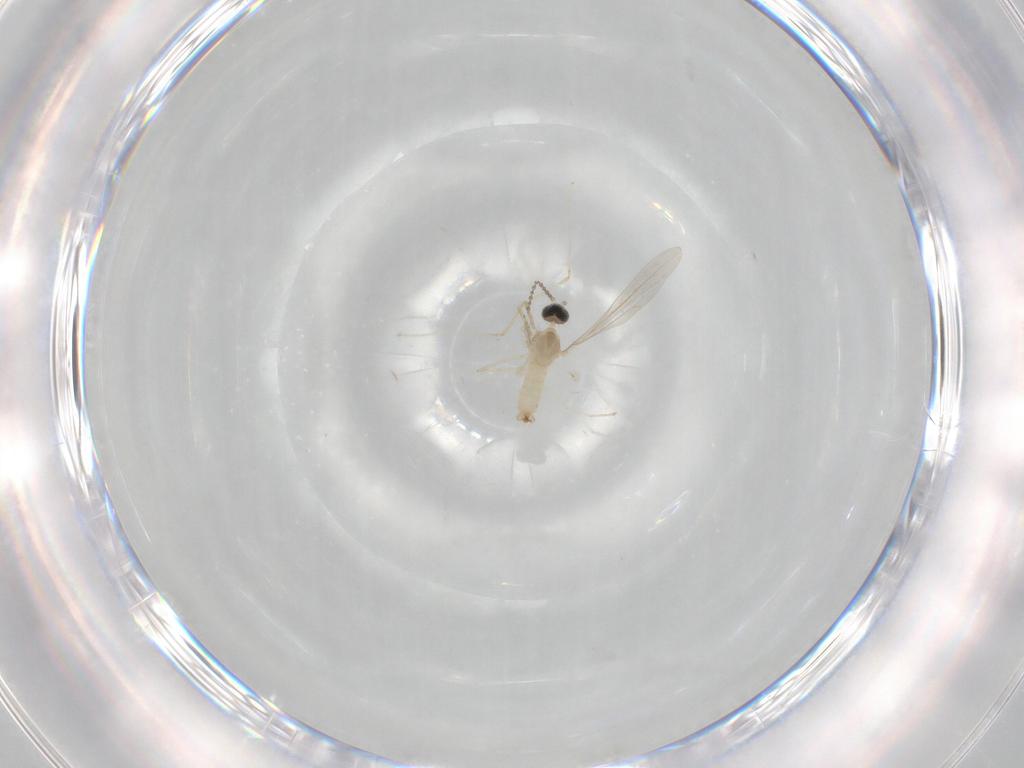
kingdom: Animalia
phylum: Arthropoda
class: Insecta
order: Diptera
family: Cecidomyiidae
